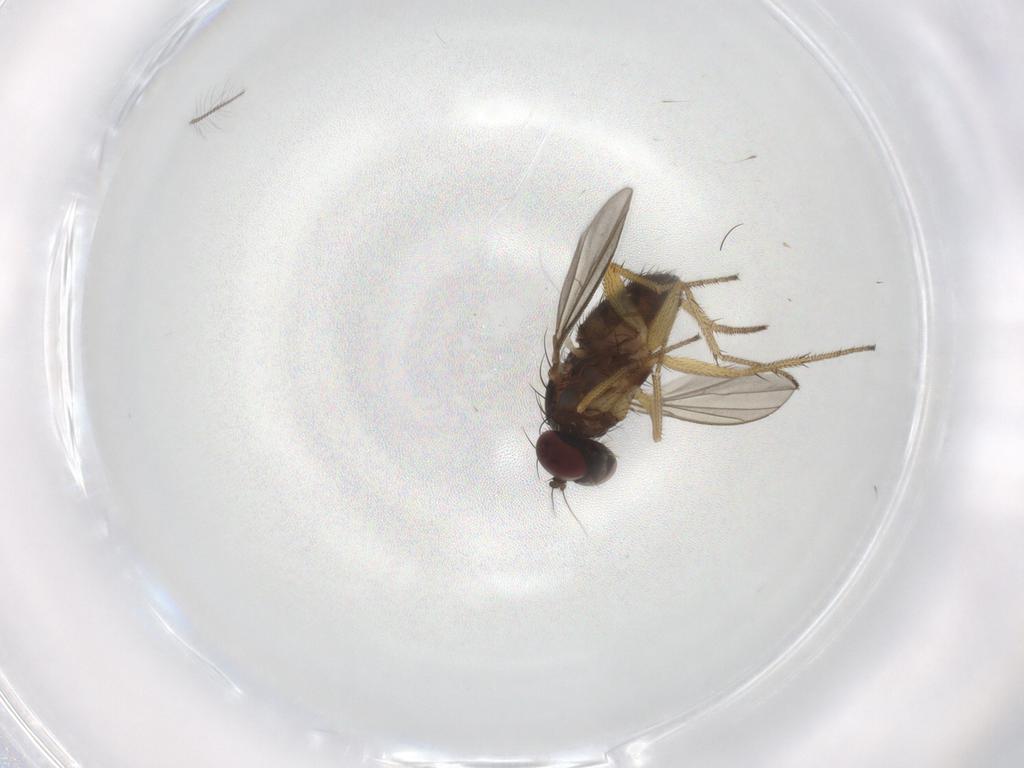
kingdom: Animalia
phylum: Arthropoda
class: Insecta
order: Diptera
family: Chironomidae
